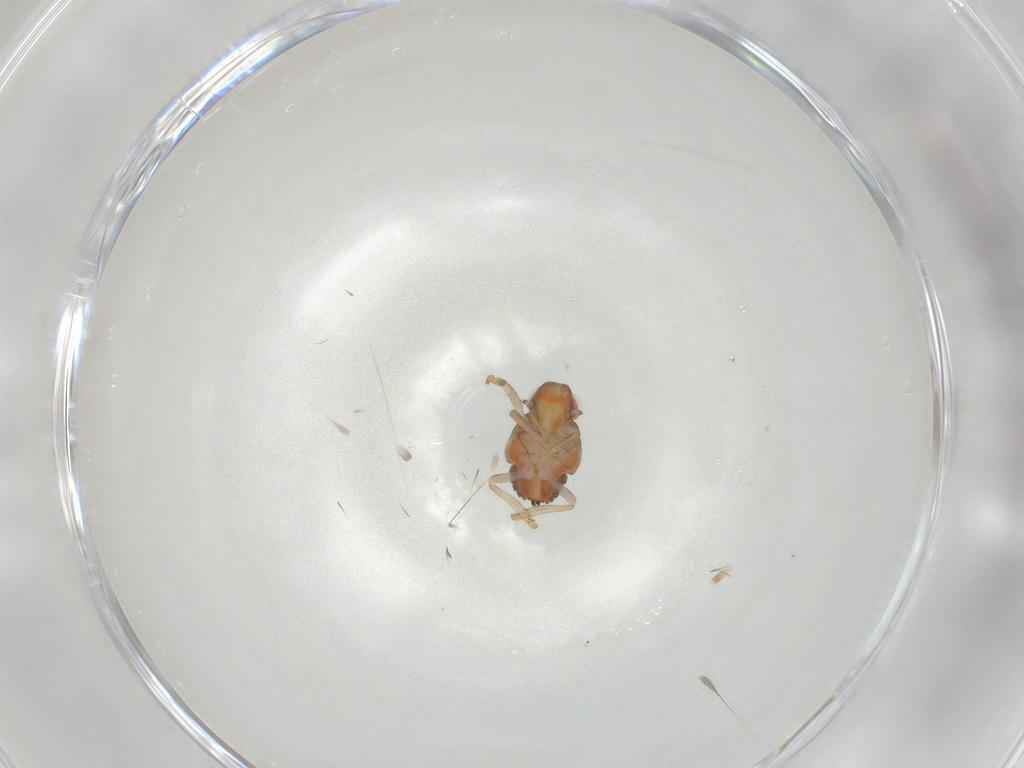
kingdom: Animalia
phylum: Arthropoda
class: Insecta
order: Hemiptera
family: Issidae
